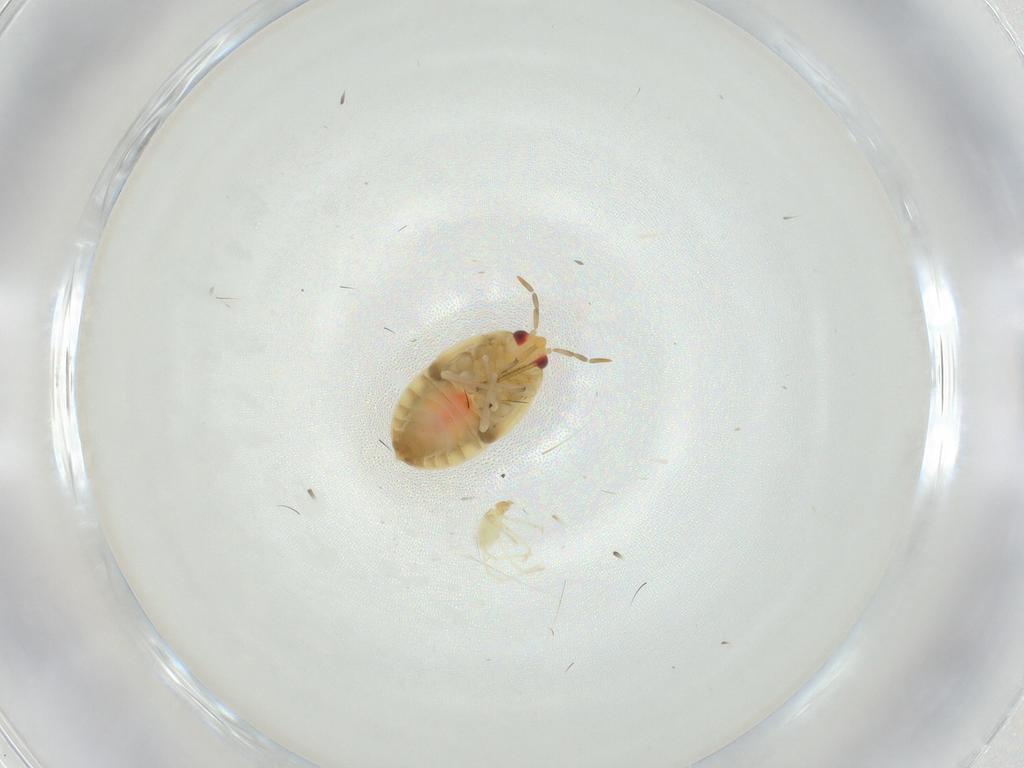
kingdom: Animalia
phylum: Arthropoda
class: Insecta
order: Hemiptera
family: Anthocoridae
